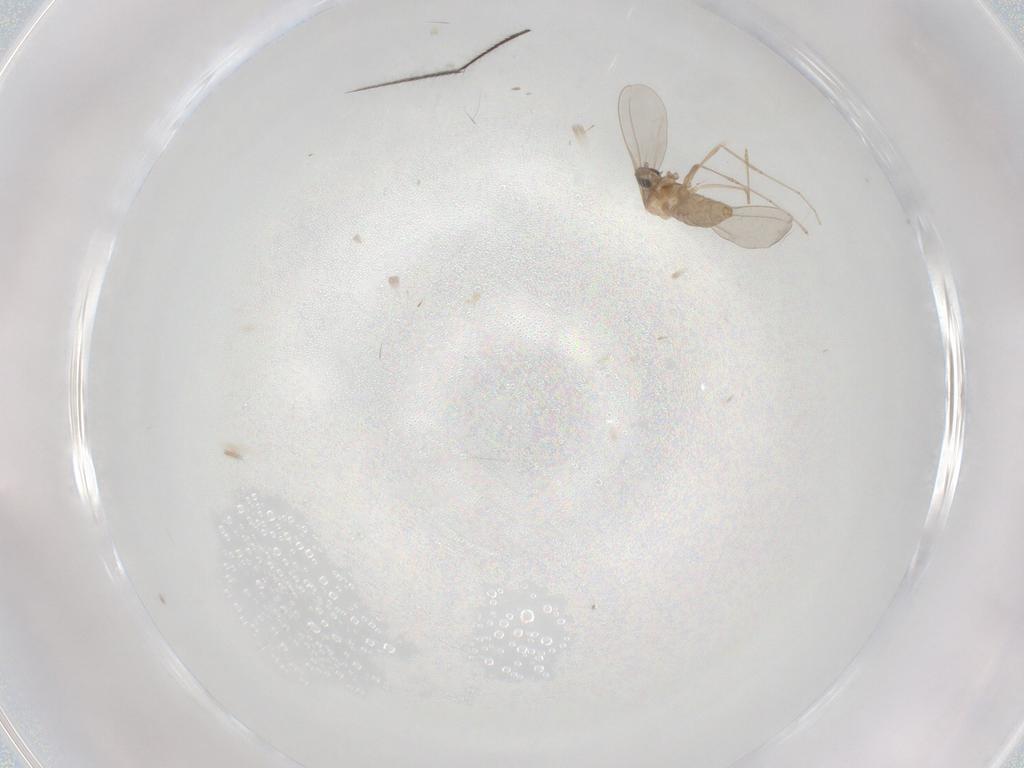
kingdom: Animalia
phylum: Arthropoda
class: Insecta
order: Diptera
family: Cecidomyiidae
